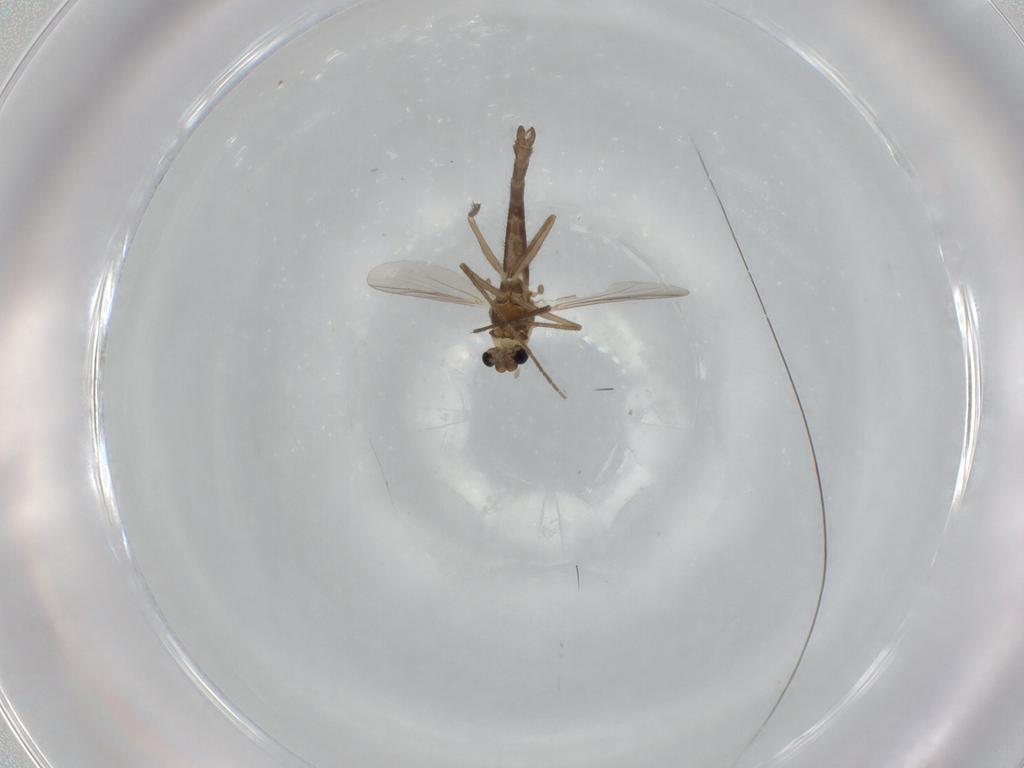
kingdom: Animalia
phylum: Arthropoda
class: Insecta
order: Diptera
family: Chironomidae
